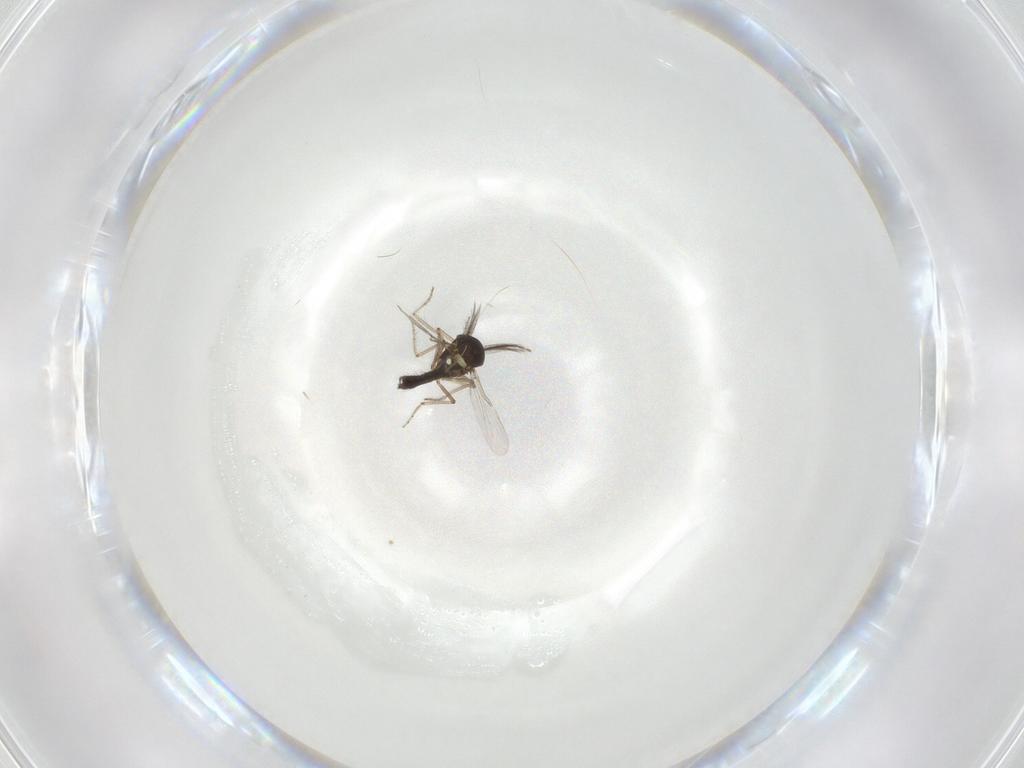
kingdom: Animalia
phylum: Arthropoda
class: Insecta
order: Diptera
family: Ceratopogonidae
